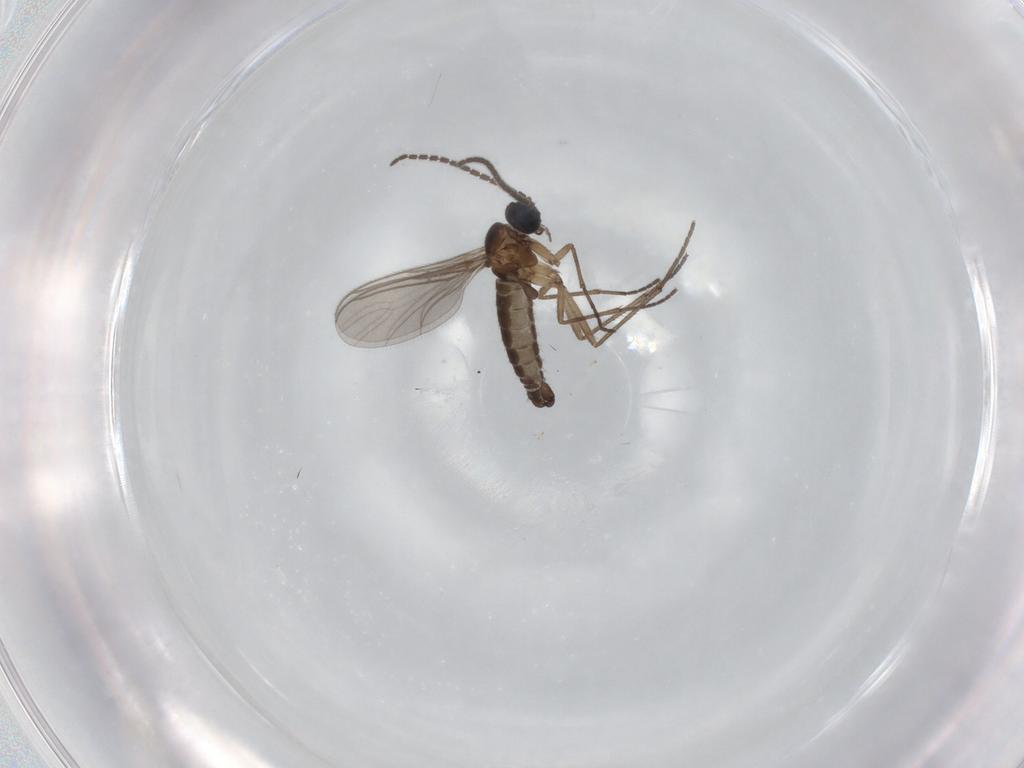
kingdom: Animalia
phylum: Arthropoda
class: Insecta
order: Diptera
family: Sciaridae
